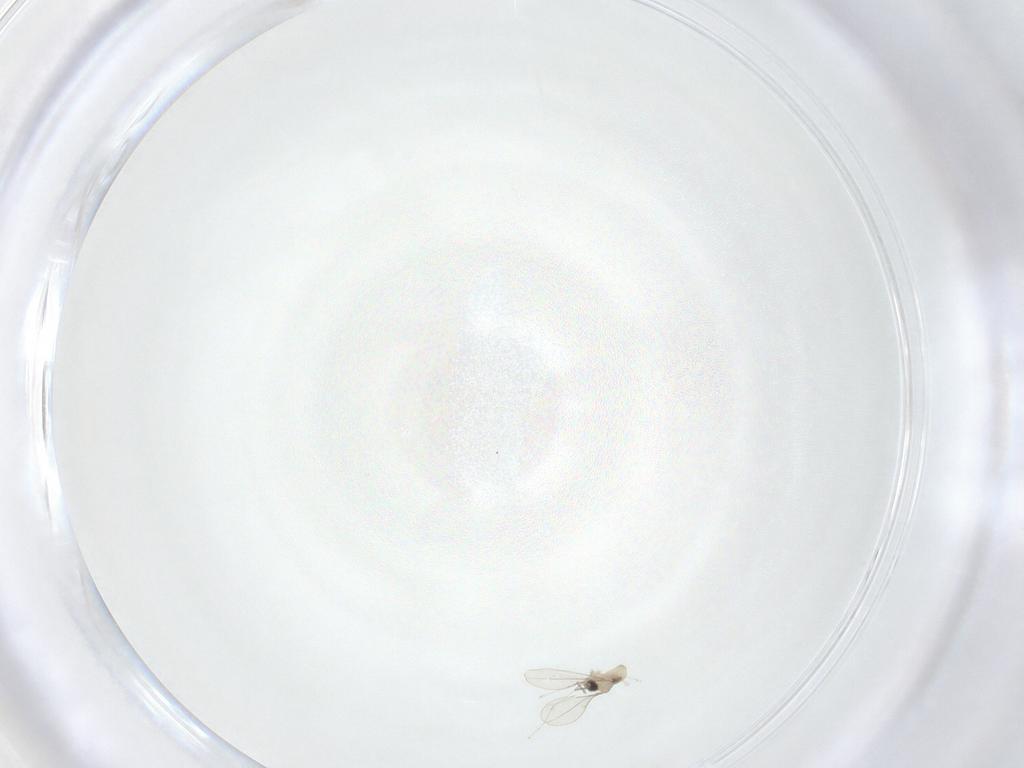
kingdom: Animalia
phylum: Arthropoda
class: Insecta
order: Diptera
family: Cecidomyiidae
